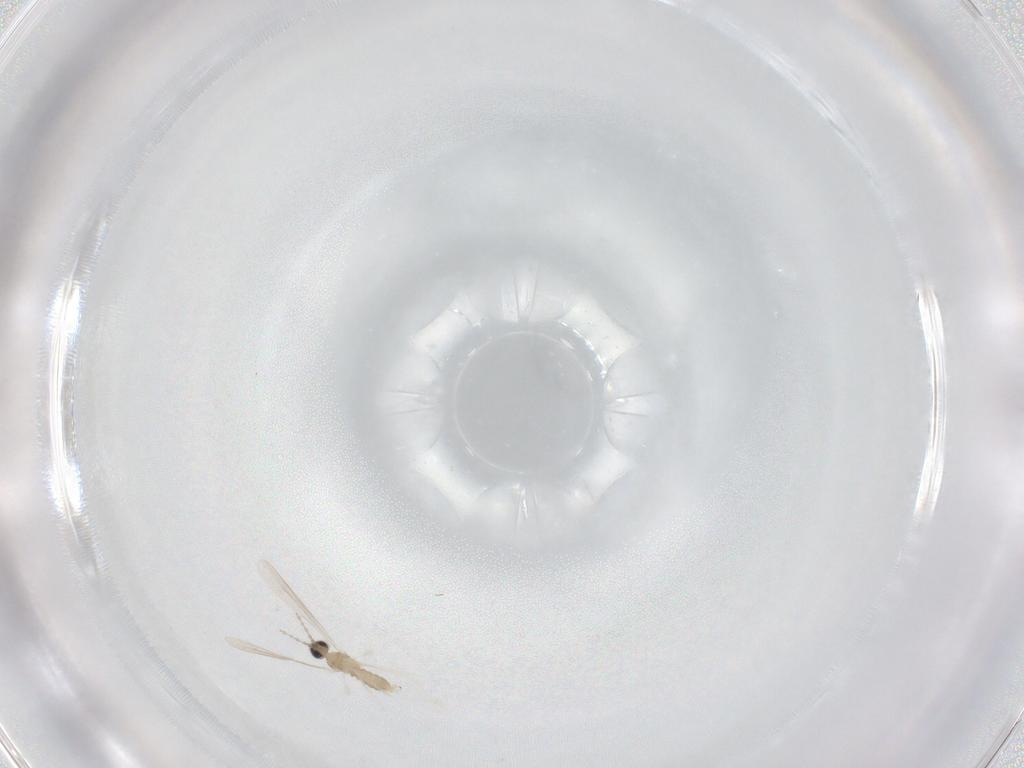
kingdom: Animalia
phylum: Arthropoda
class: Insecta
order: Diptera
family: Cecidomyiidae
